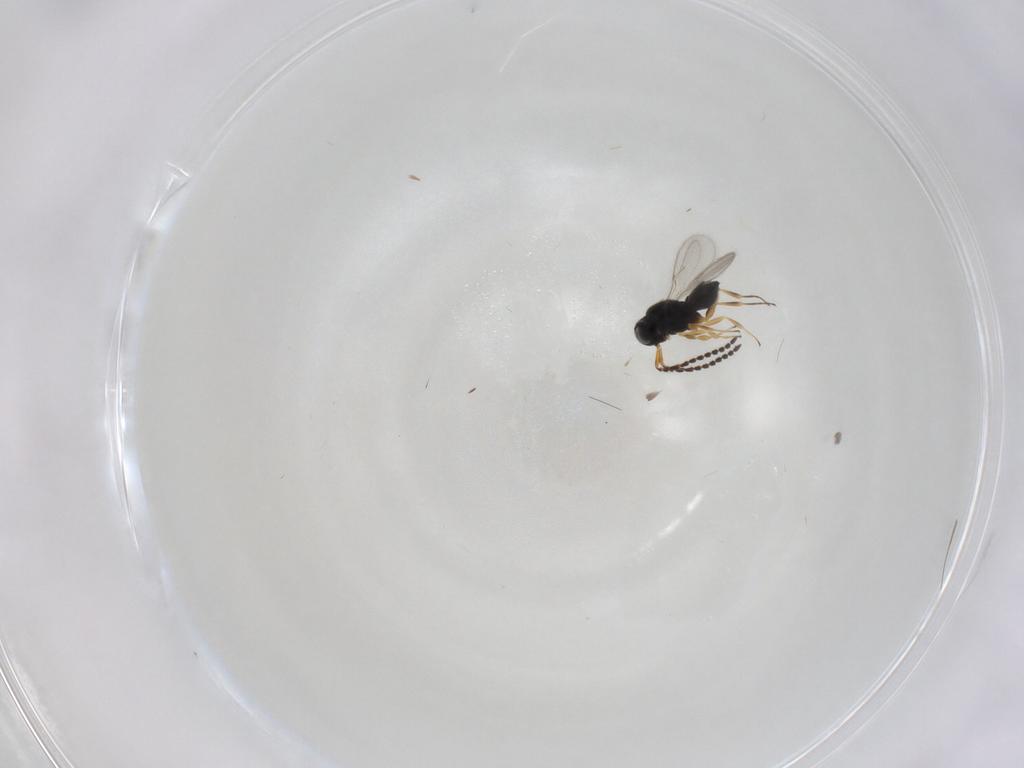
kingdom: Animalia
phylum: Arthropoda
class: Insecta
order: Hymenoptera
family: Scelionidae
